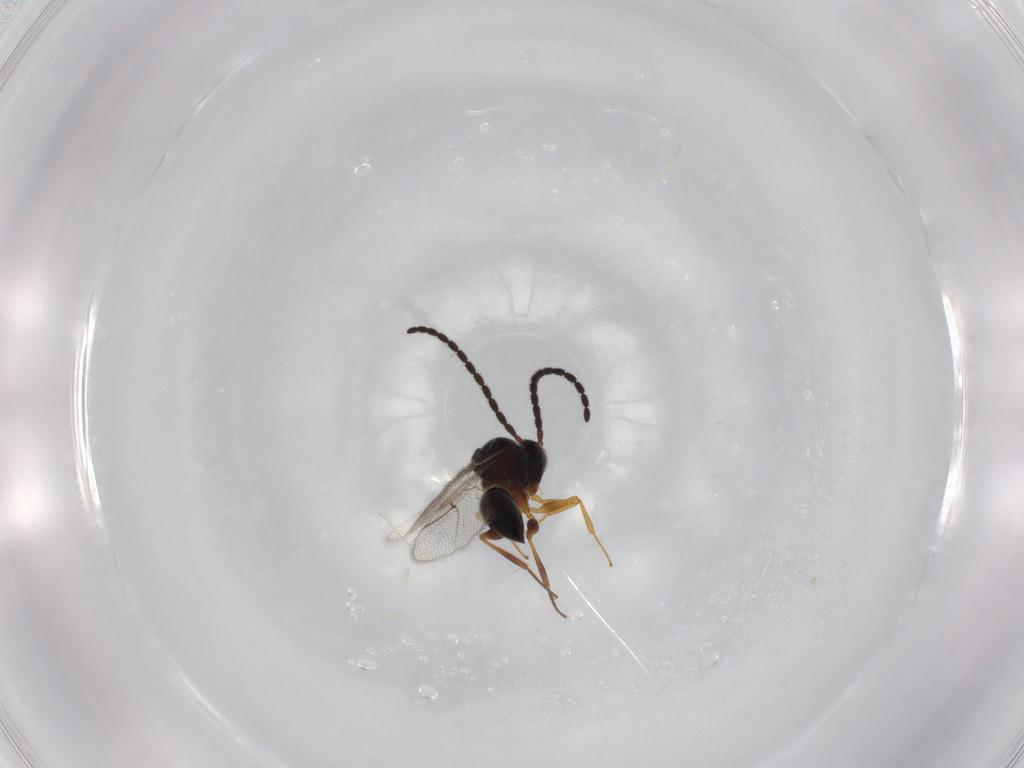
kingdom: Animalia
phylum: Arthropoda
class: Insecta
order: Hymenoptera
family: Figitidae
